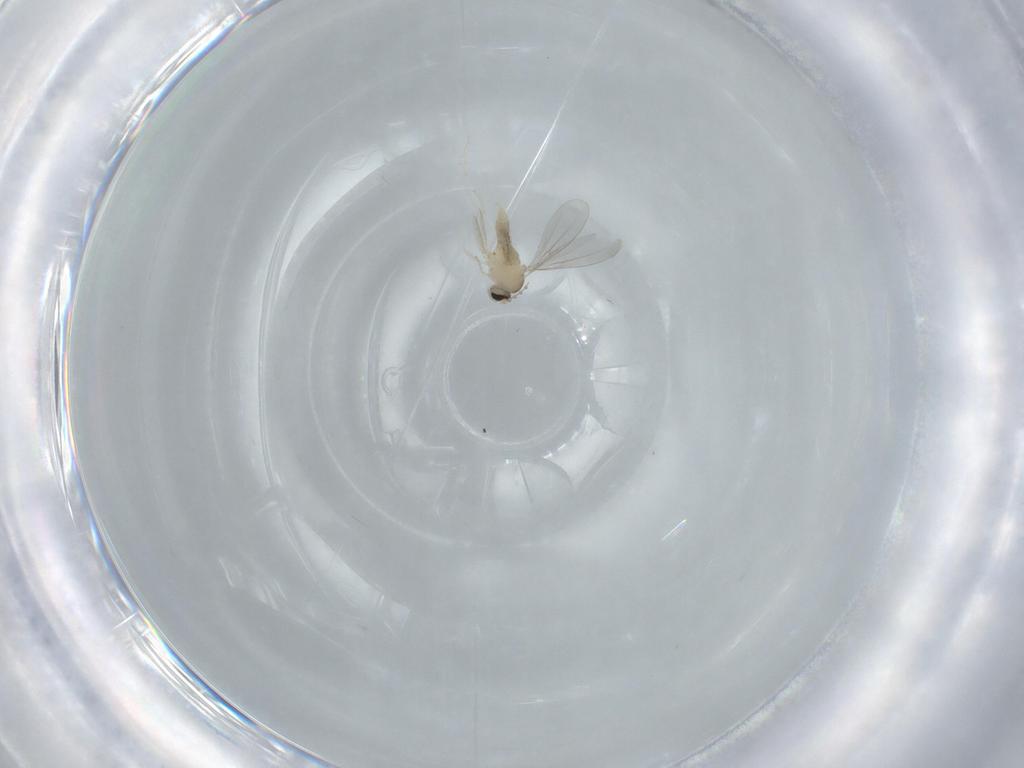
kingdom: Animalia
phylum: Arthropoda
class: Insecta
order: Diptera
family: Cecidomyiidae
